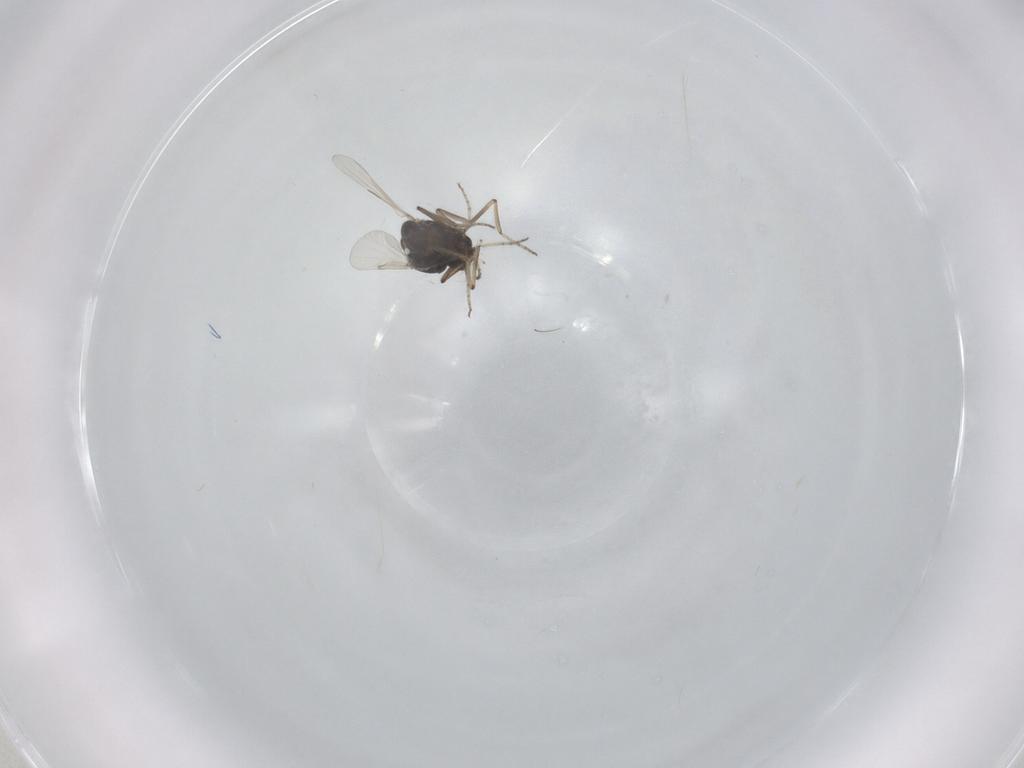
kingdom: Animalia
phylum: Arthropoda
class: Insecta
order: Diptera
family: Ceratopogonidae
